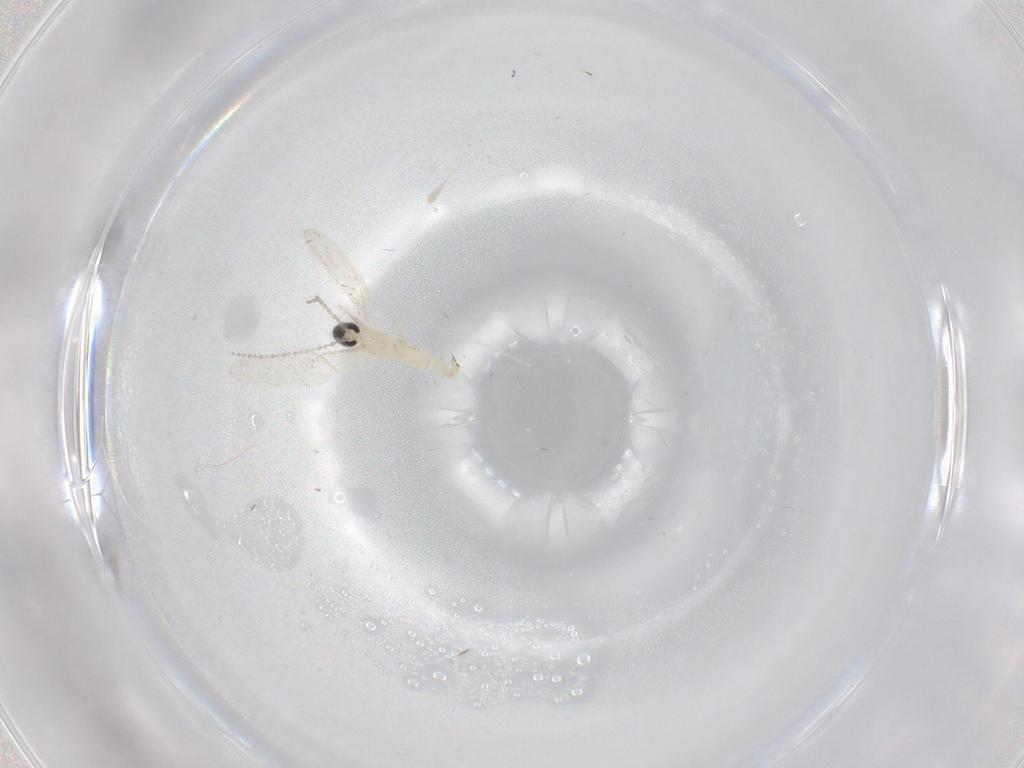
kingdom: Animalia
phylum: Arthropoda
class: Insecta
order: Diptera
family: Cecidomyiidae
